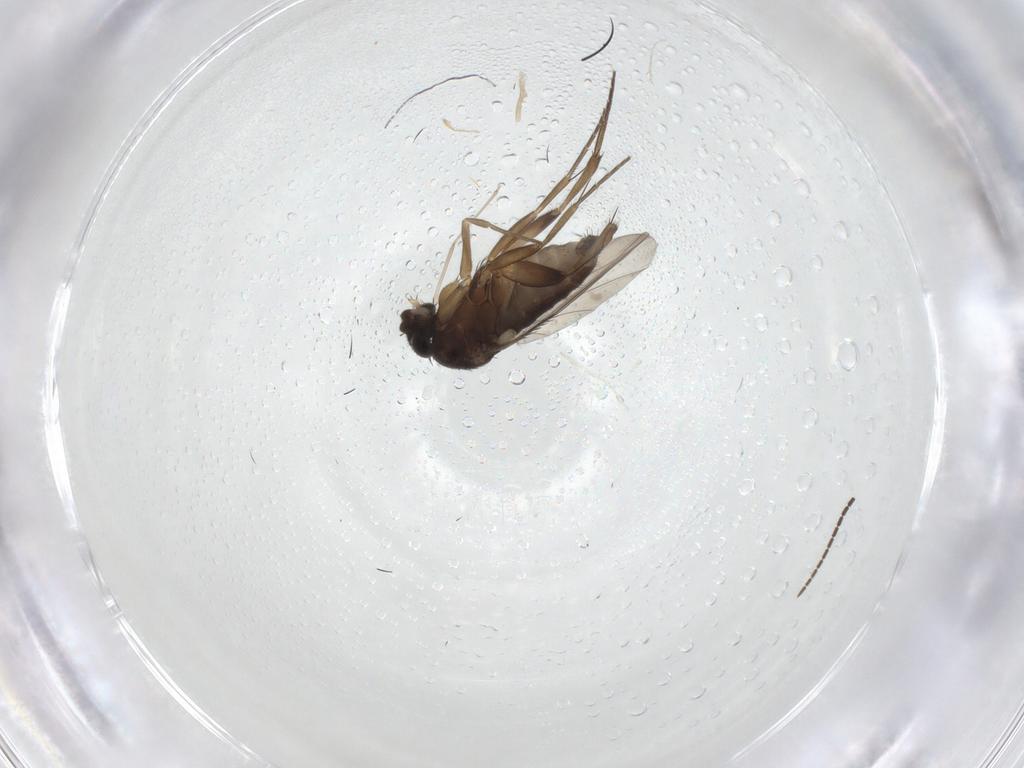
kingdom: Animalia
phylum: Arthropoda
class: Insecta
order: Diptera
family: Phoridae
